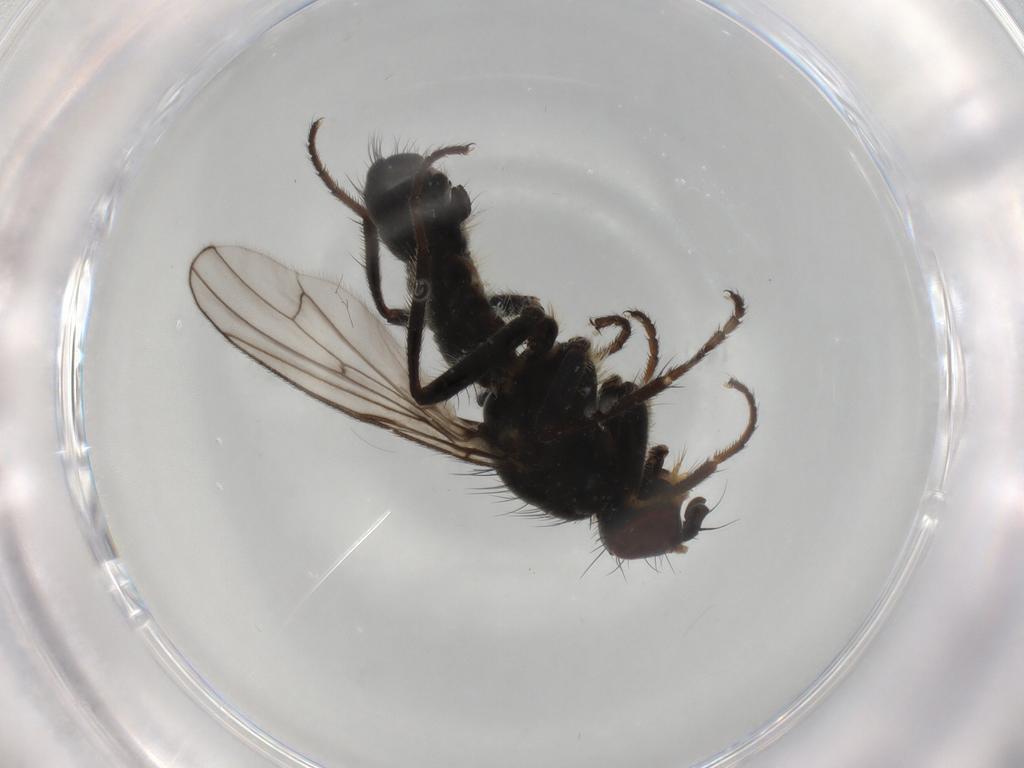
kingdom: Animalia
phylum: Arthropoda
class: Insecta
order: Diptera
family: Scathophagidae
